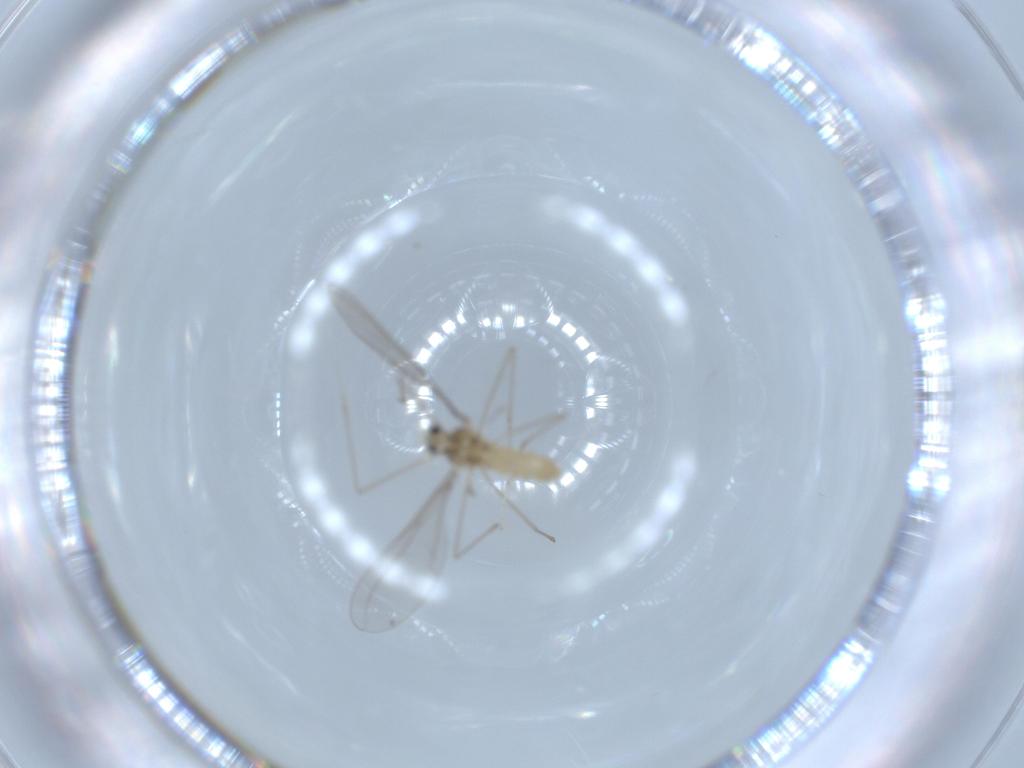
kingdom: Animalia
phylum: Arthropoda
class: Insecta
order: Diptera
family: Cecidomyiidae
